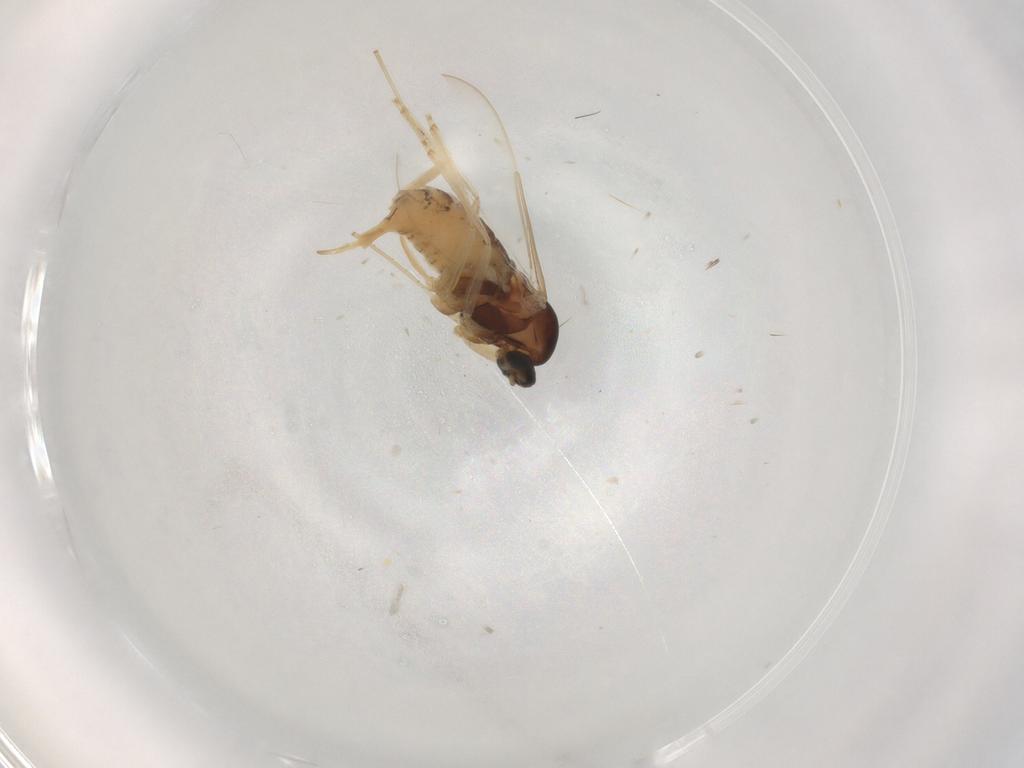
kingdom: Animalia
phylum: Arthropoda
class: Insecta
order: Diptera
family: Cecidomyiidae
